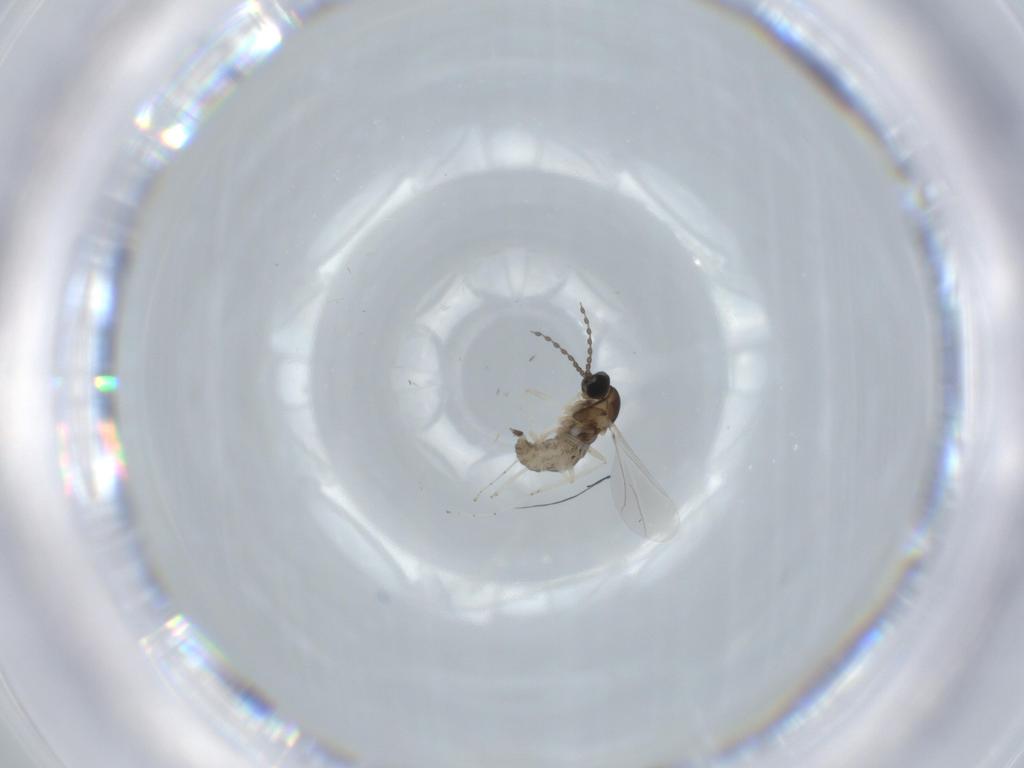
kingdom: Animalia
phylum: Arthropoda
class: Insecta
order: Diptera
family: Cecidomyiidae
